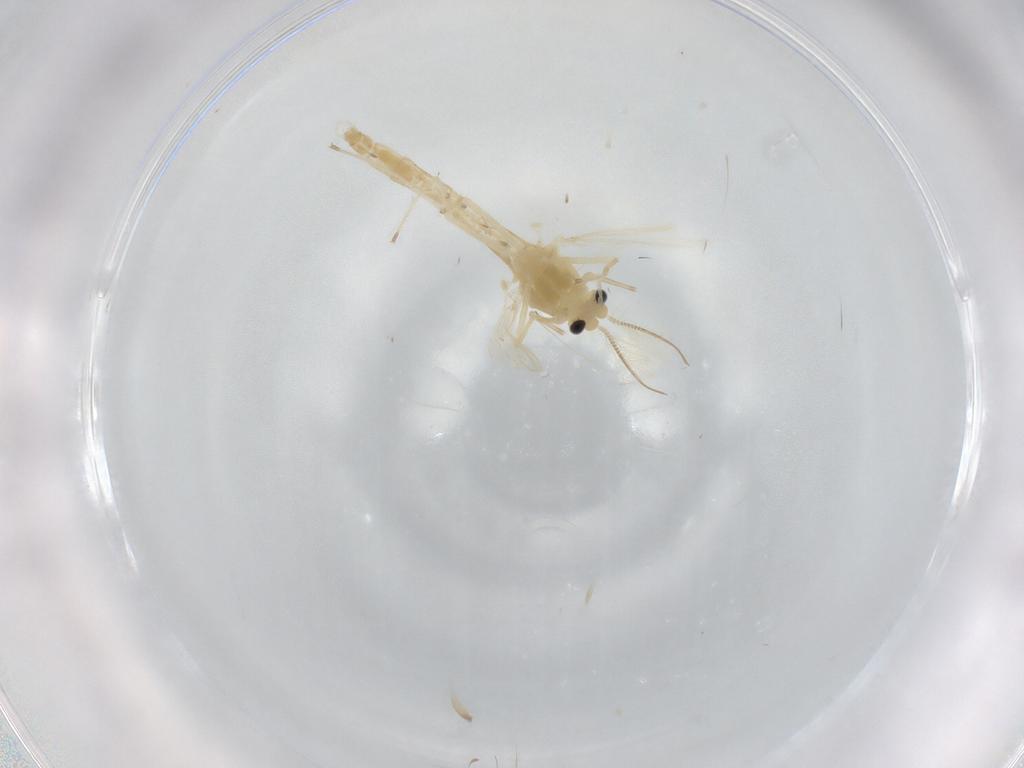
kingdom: Animalia
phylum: Arthropoda
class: Insecta
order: Diptera
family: Chironomidae
